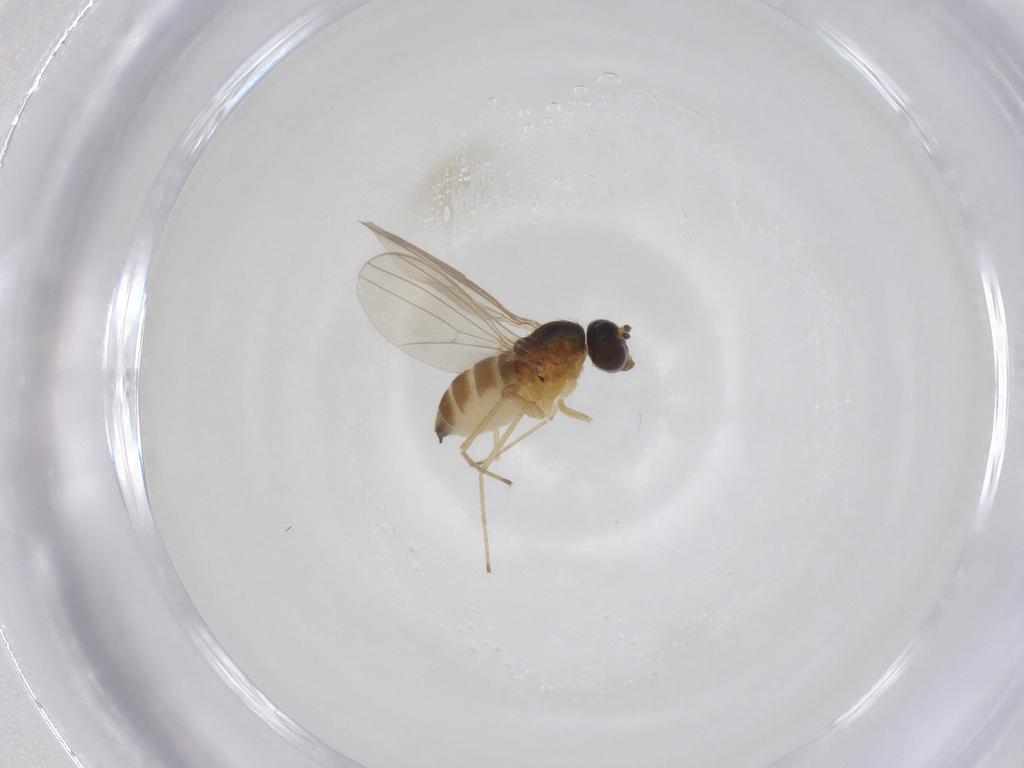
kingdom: Animalia
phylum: Arthropoda
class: Insecta
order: Diptera
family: Dolichopodidae
